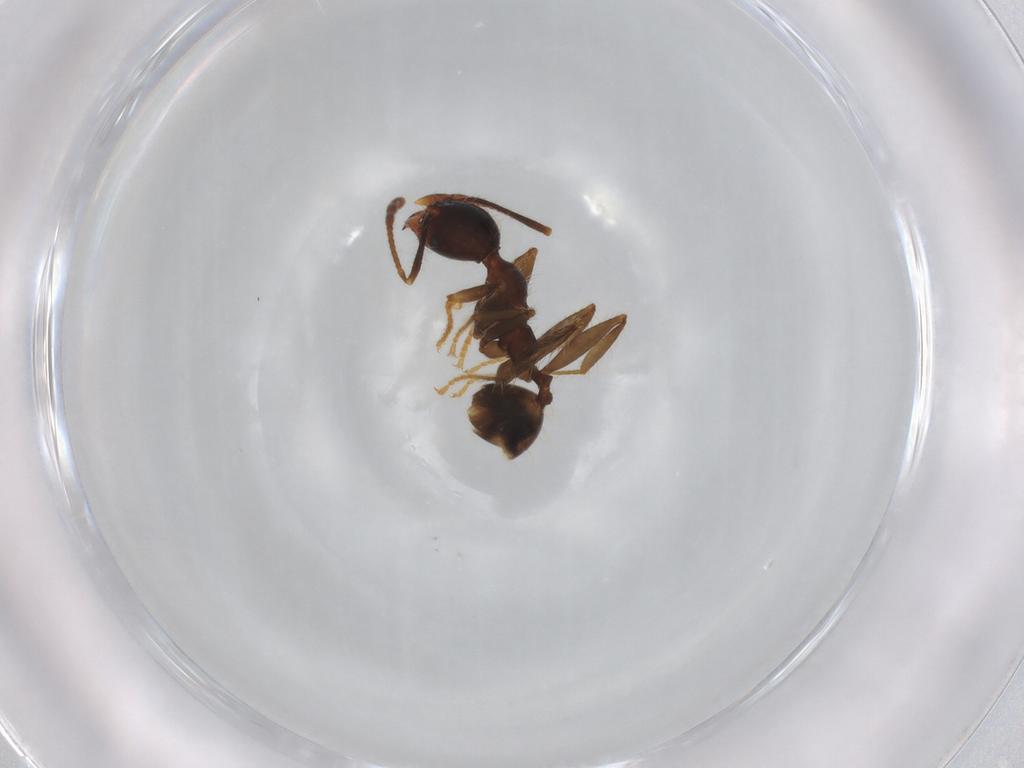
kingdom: Animalia
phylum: Arthropoda
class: Insecta
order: Hymenoptera
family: Formicidae
